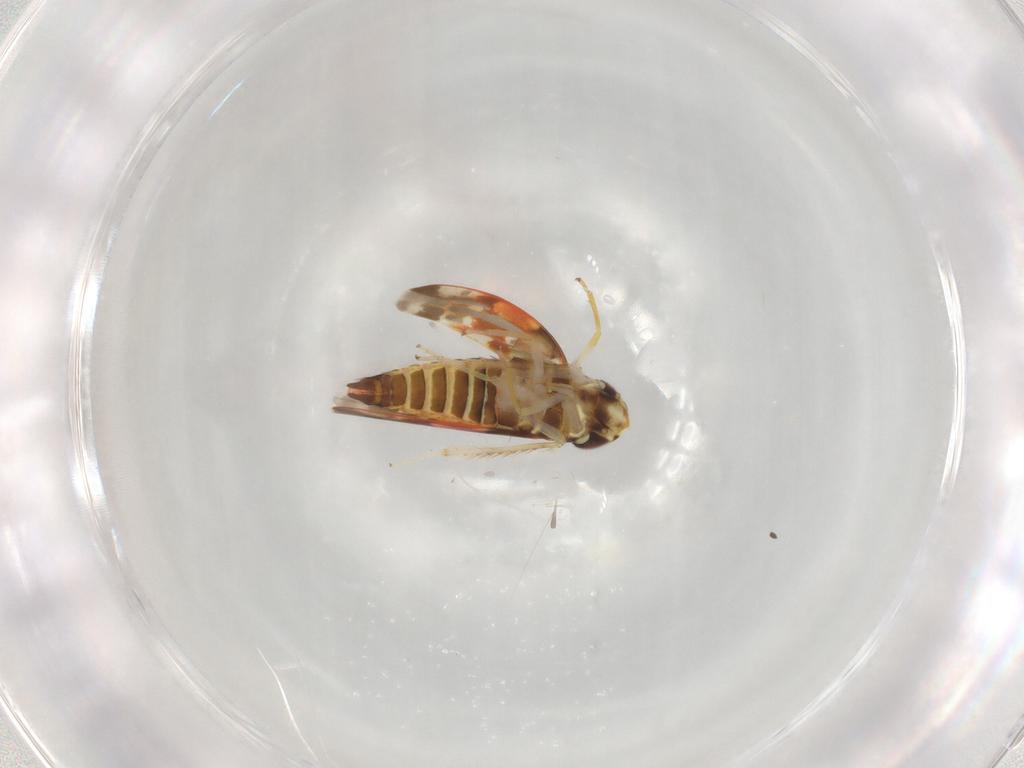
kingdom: Animalia
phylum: Arthropoda
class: Insecta
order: Hemiptera
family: Cicadellidae
